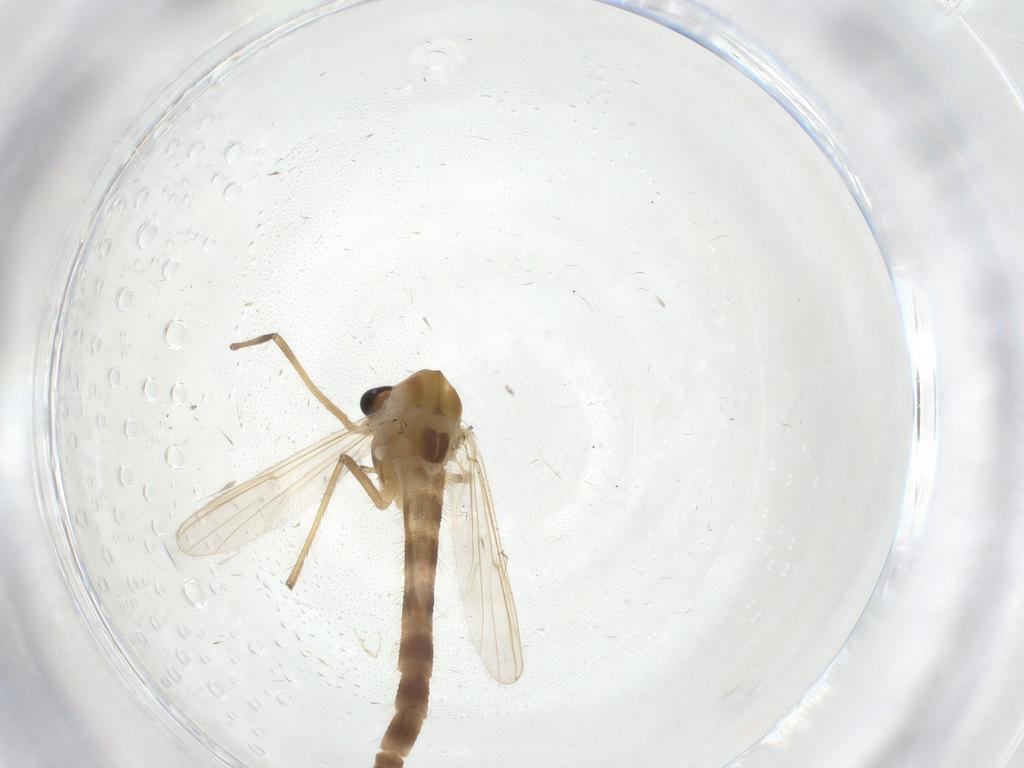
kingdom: Animalia
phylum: Arthropoda
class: Insecta
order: Diptera
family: Chironomidae
